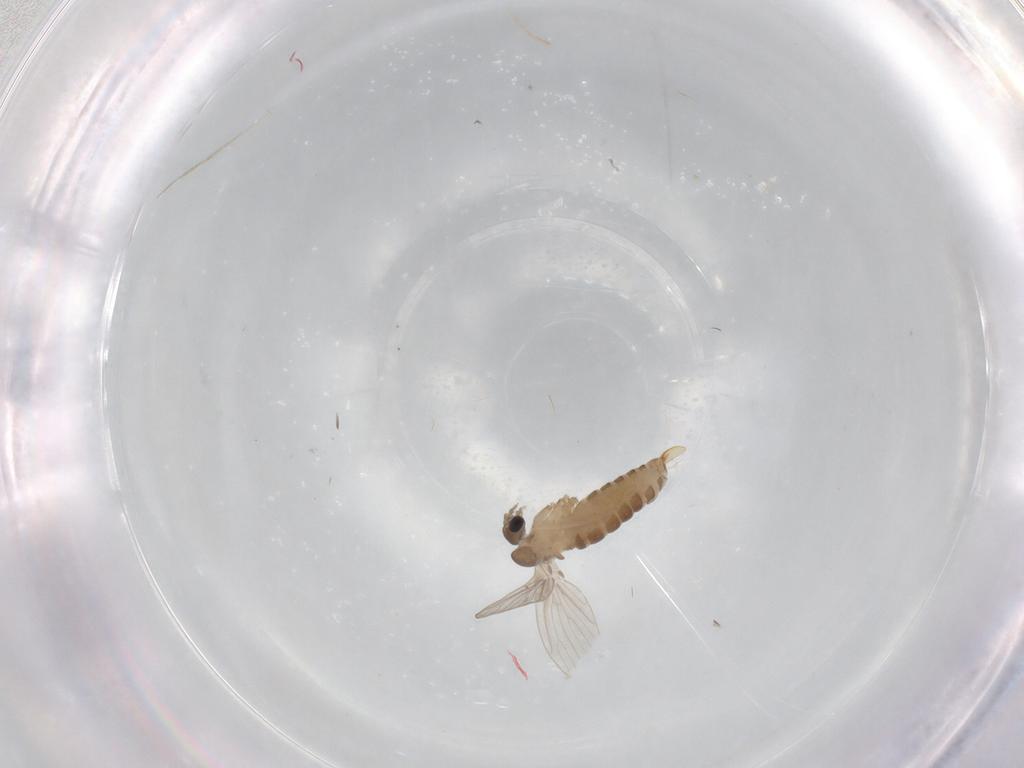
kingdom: Animalia
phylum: Arthropoda
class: Insecta
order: Diptera
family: Psychodidae
